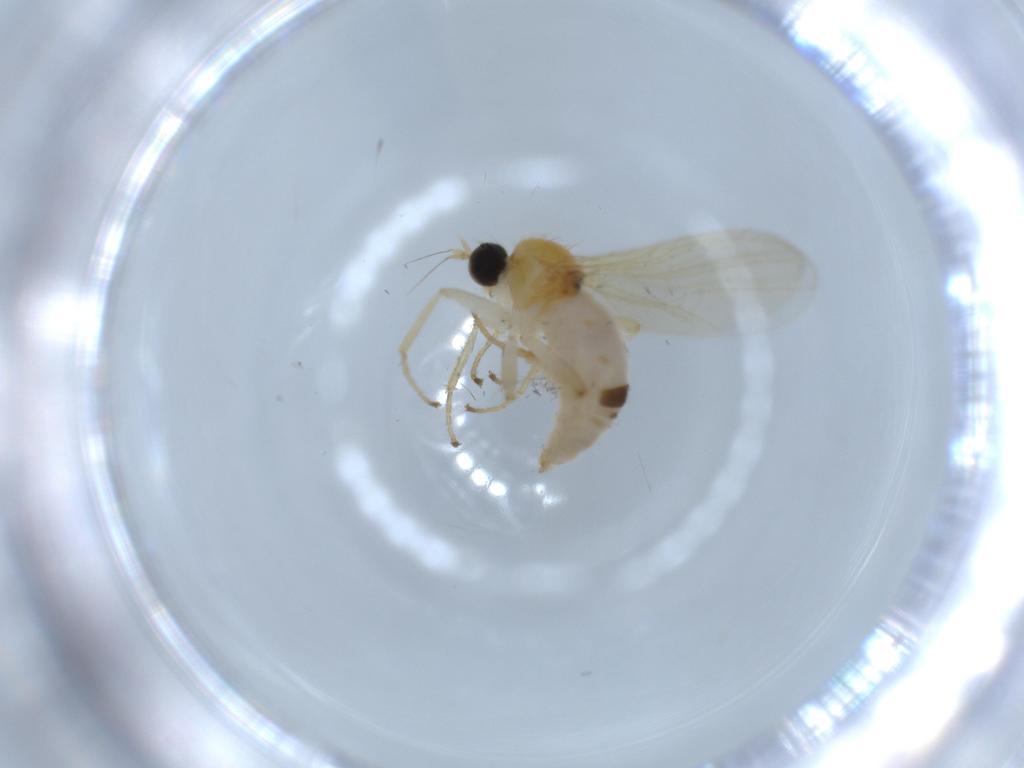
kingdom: Animalia
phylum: Arthropoda
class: Insecta
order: Diptera
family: Hybotidae
